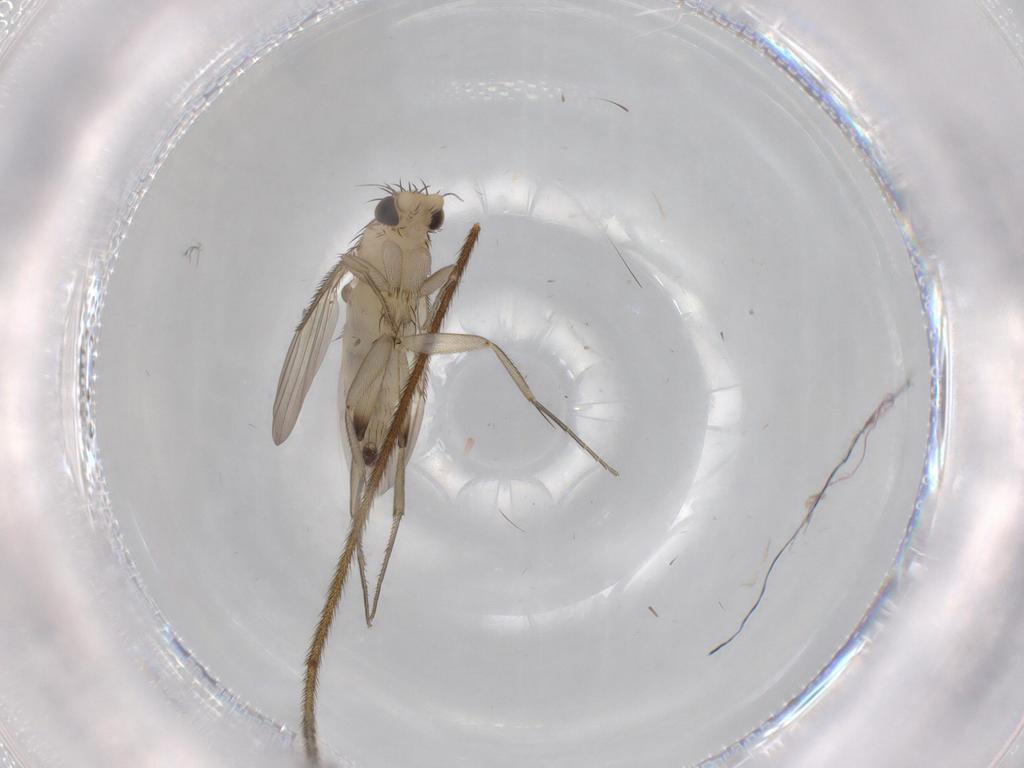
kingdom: Animalia
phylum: Arthropoda
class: Insecta
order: Diptera
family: Phoridae
